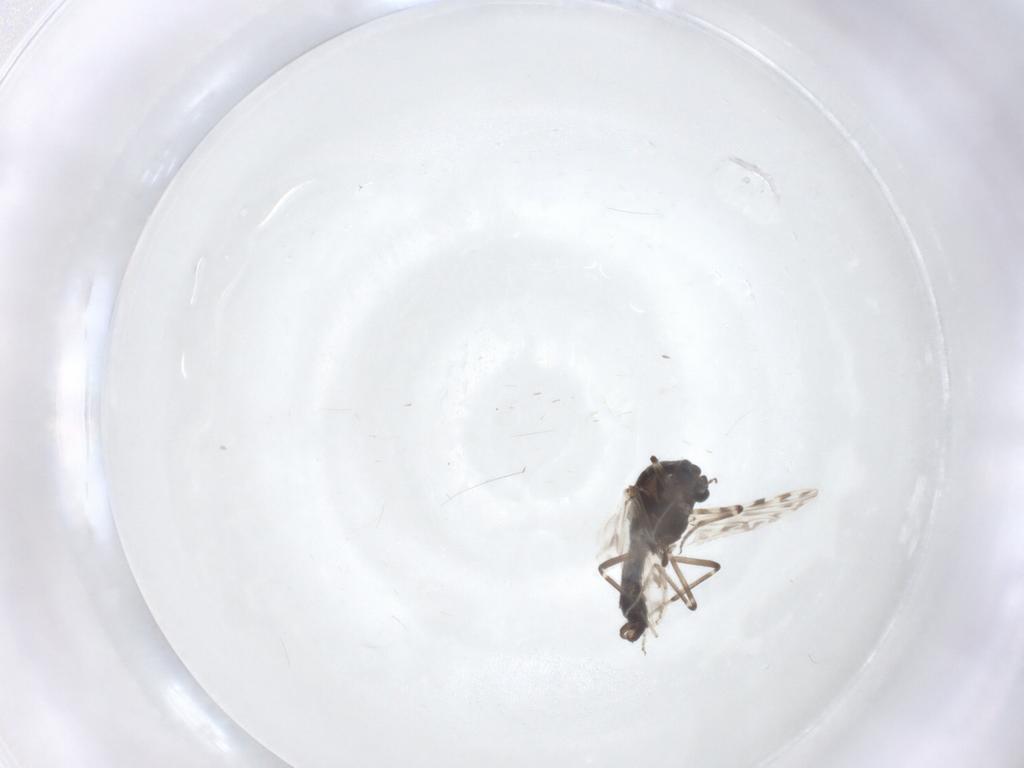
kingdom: Animalia
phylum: Arthropoda
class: Insecta
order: Diptera
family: Ceratopogonidae
